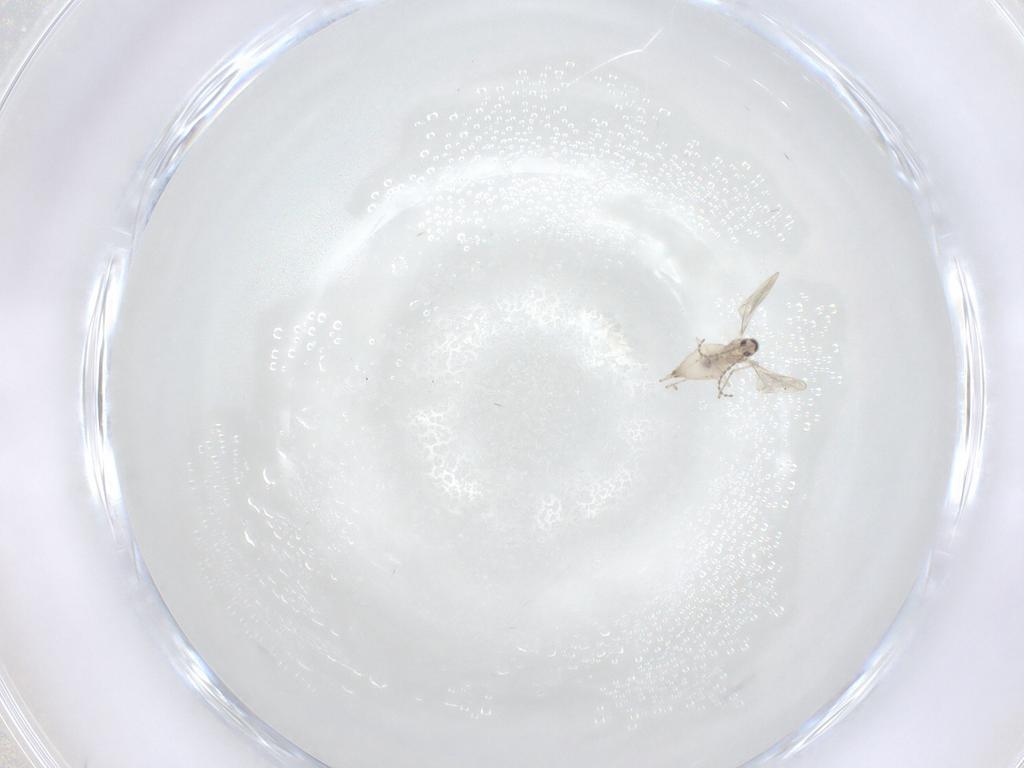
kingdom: Animalia
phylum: Arthropoda
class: Insecta
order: Diptera
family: Cecidomyiidae
